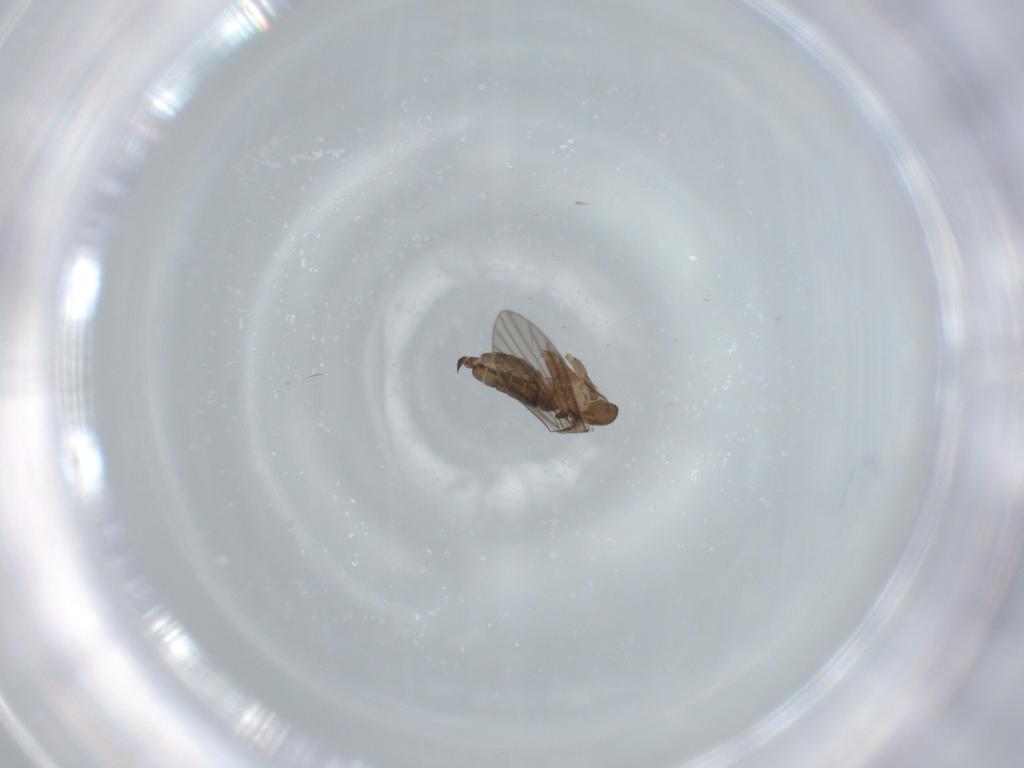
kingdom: Animalia
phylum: Arthropoda
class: Insecta
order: Diptera
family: Psychodidae
